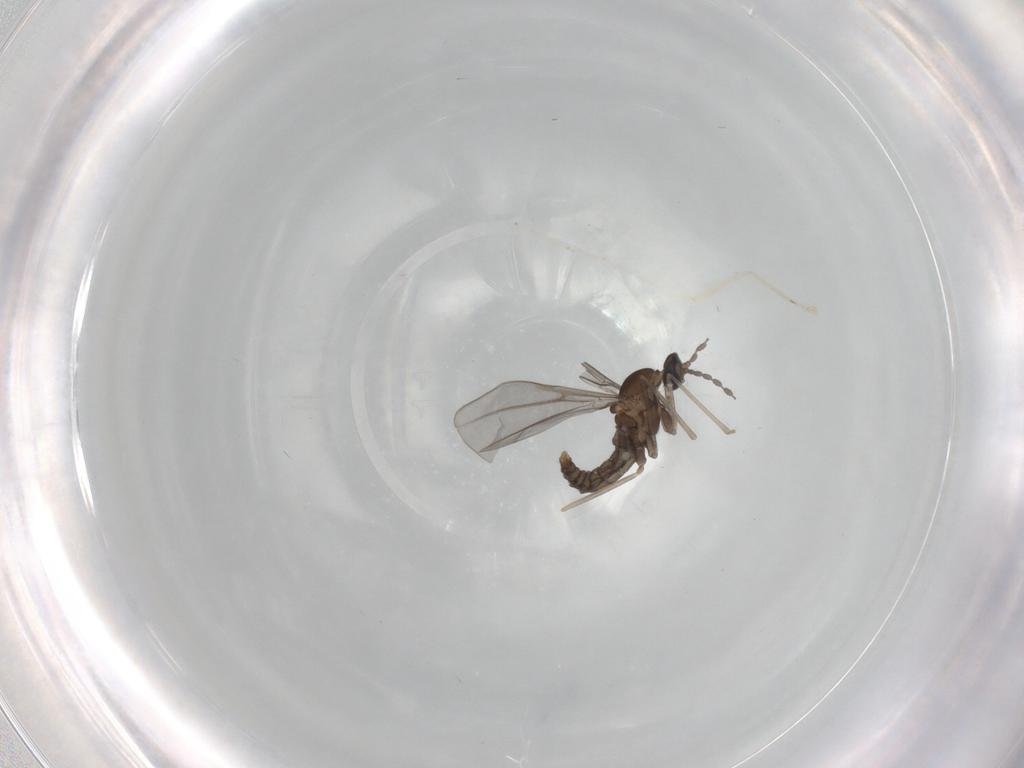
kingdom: Animalia
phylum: Arthropoda
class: Insecta
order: Diptera
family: Cecidomyiidae
